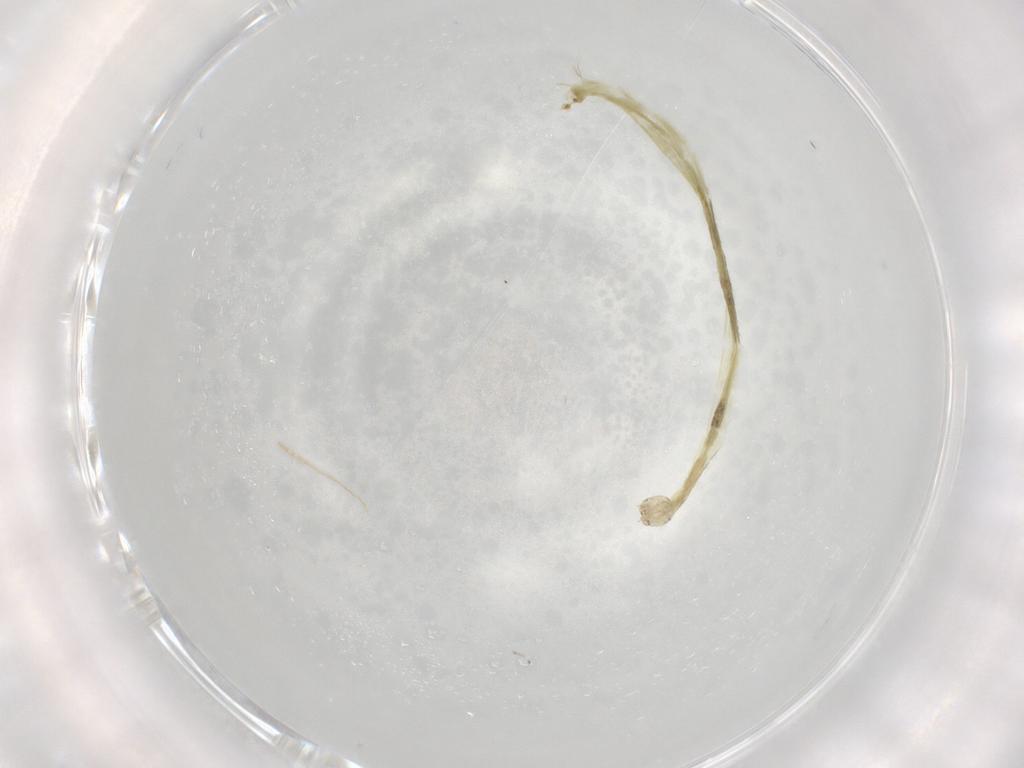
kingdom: Animalia
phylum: Arthropoda
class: Insecta
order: Diptera
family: Chironomidae
